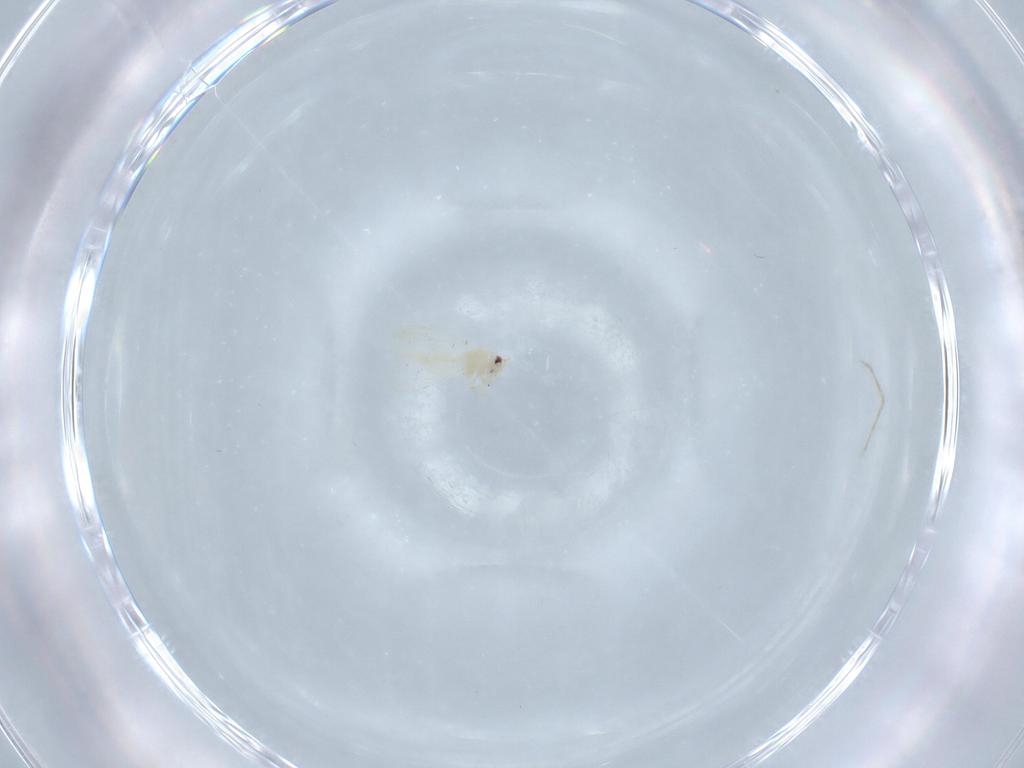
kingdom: Animalia
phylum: Arthropoda
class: Insecta
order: Hemiptera
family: Aleyrodidae
